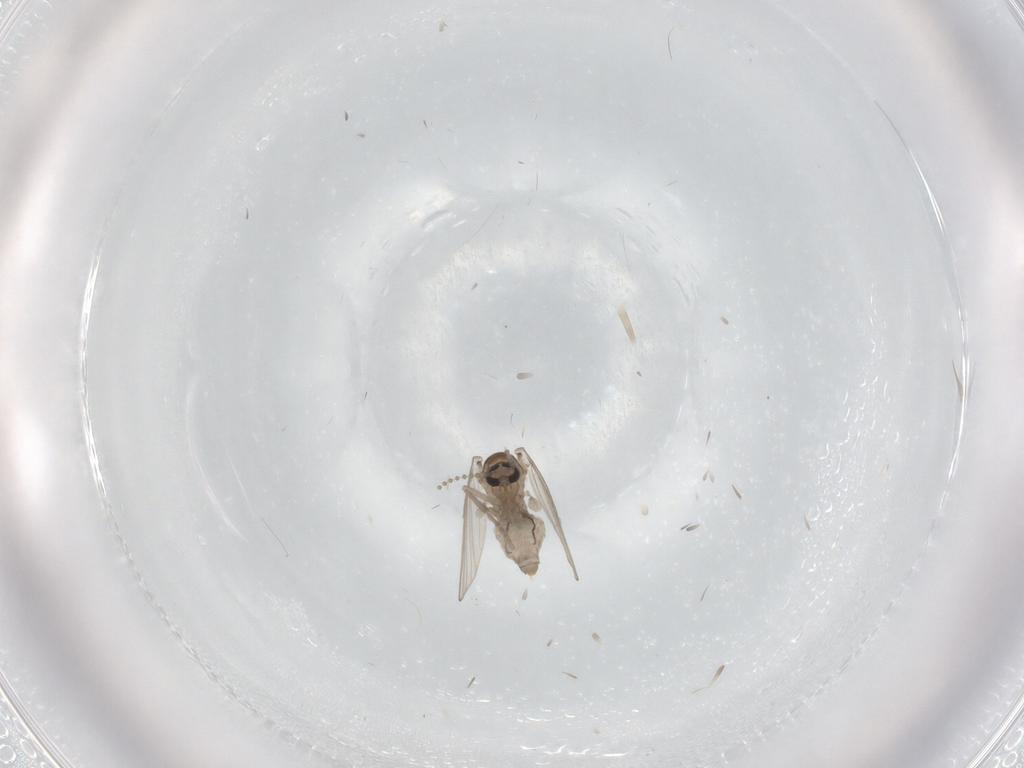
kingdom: Animalia
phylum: Arthropoda
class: Insecta
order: Diptera
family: Psychodidae
